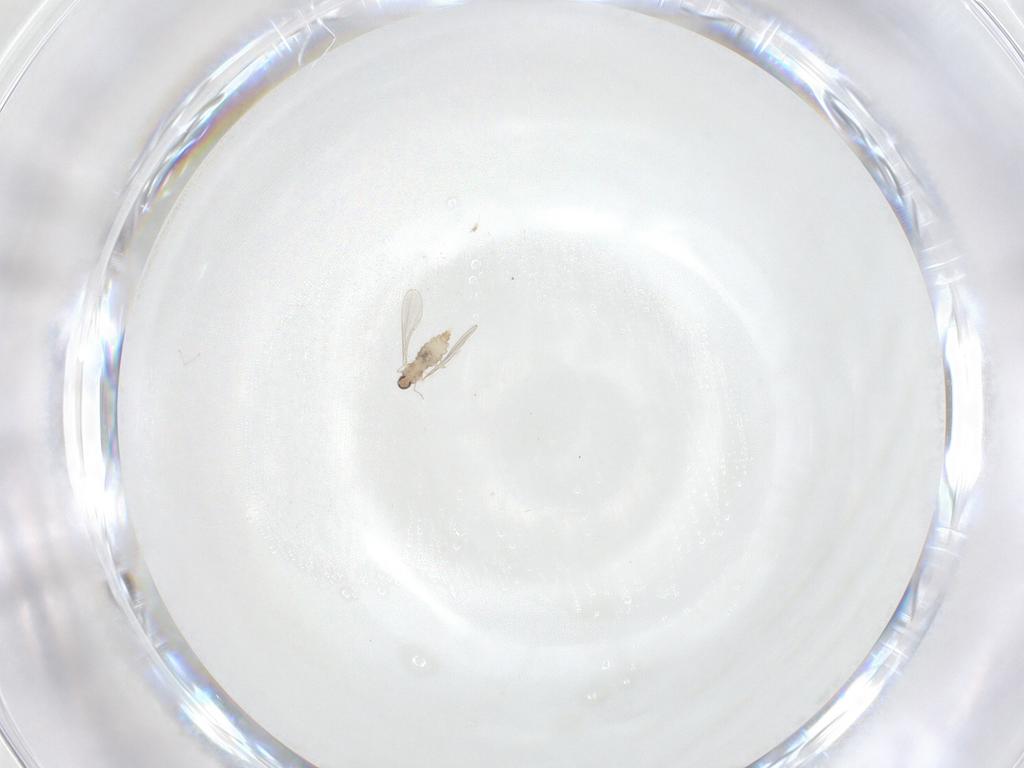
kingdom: Animalia
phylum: Arthropoda
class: Insecta
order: Diptera
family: Cecidomyiidae
